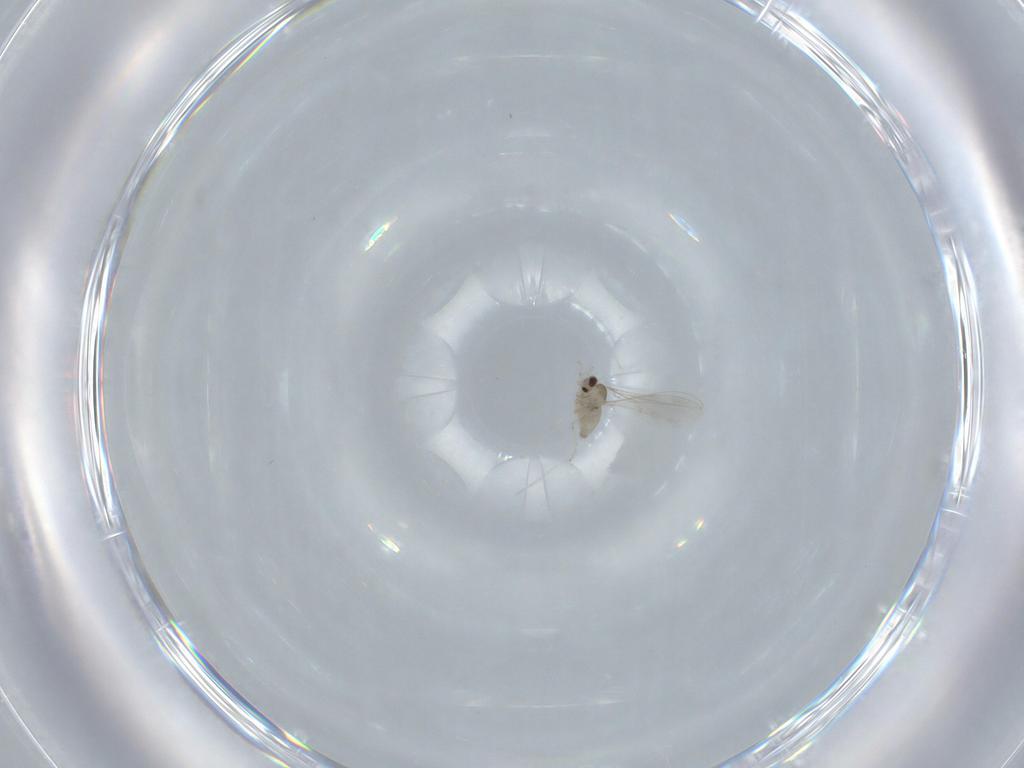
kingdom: Animalia
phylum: Arthropoda
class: Insecta
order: Diptera
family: Cecidomyiidae
